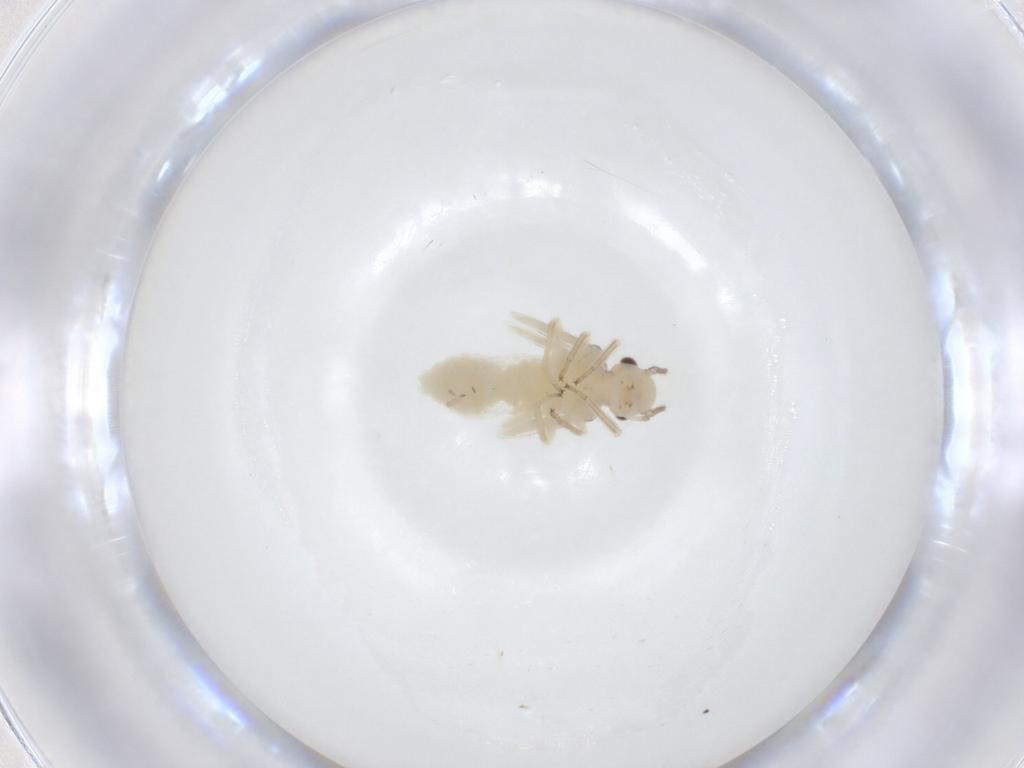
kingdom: Animalia
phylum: Arthropoda
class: Insecta
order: Psocodea
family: Caeciliusidae
